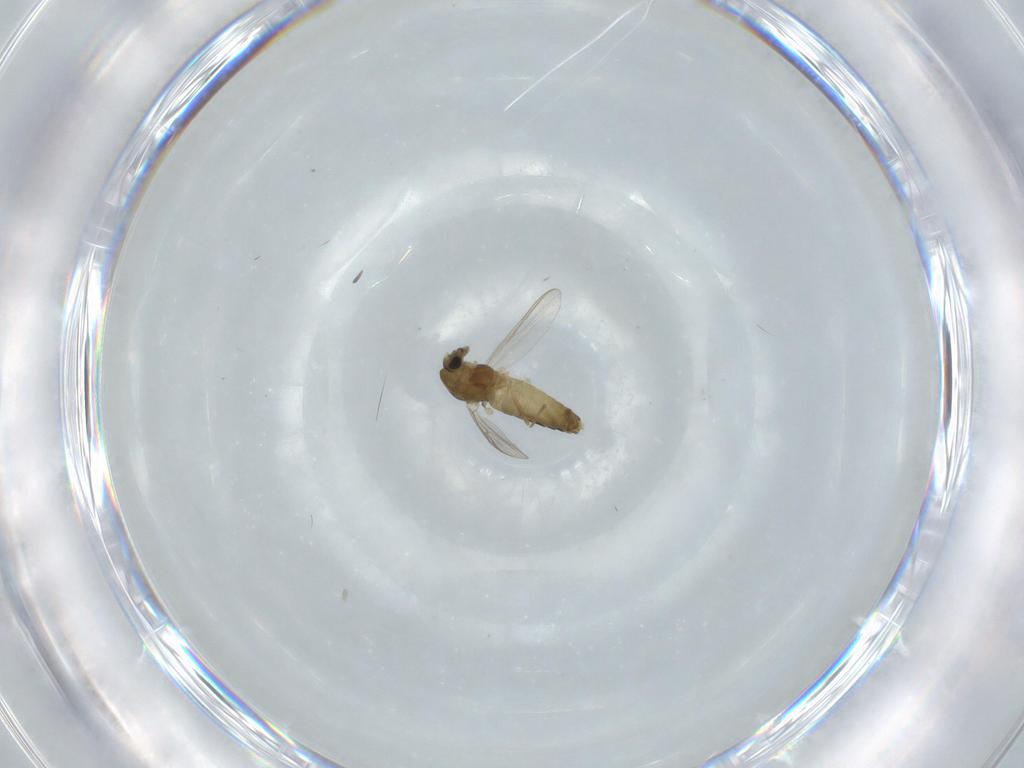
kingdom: Animalia
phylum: Arthropoda
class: Insecta
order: Diptera
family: Chironomidae
